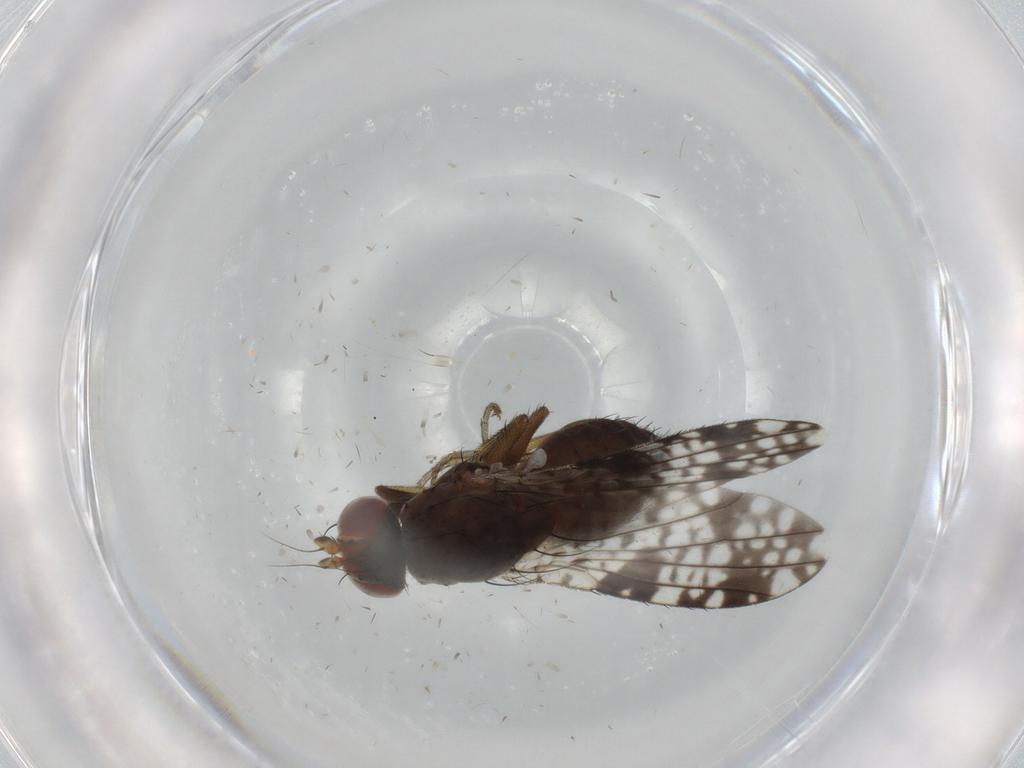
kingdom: Animalia
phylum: Arthropoda
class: Insecta
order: Diptera
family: Tephritidae
